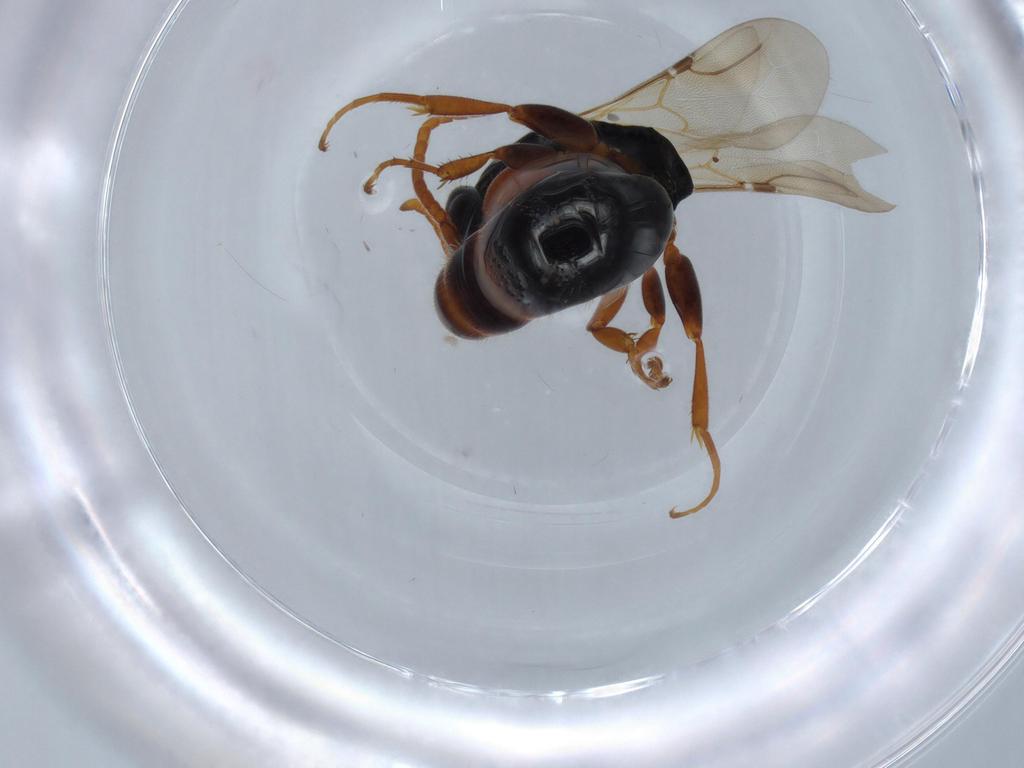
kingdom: Animalia
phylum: Arthropoda
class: Insecta
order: Hymenoptera
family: Bethylidae
